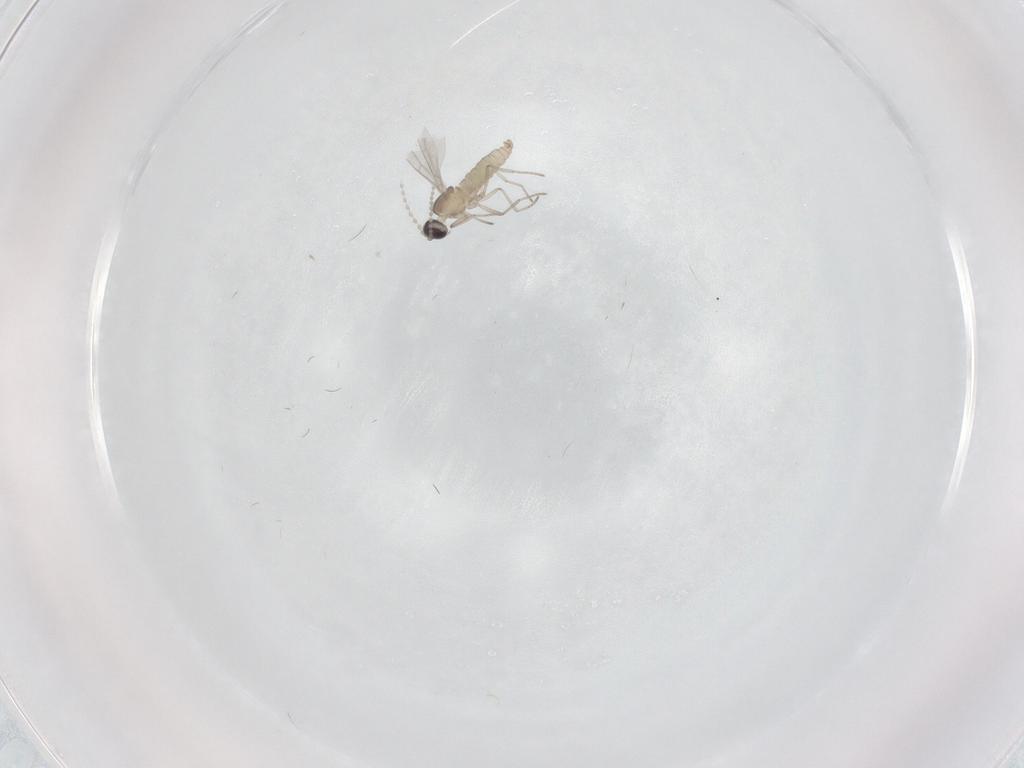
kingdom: Animalia
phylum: Arthropoda
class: Insecta
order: Diptera
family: Cecidomyiidae
